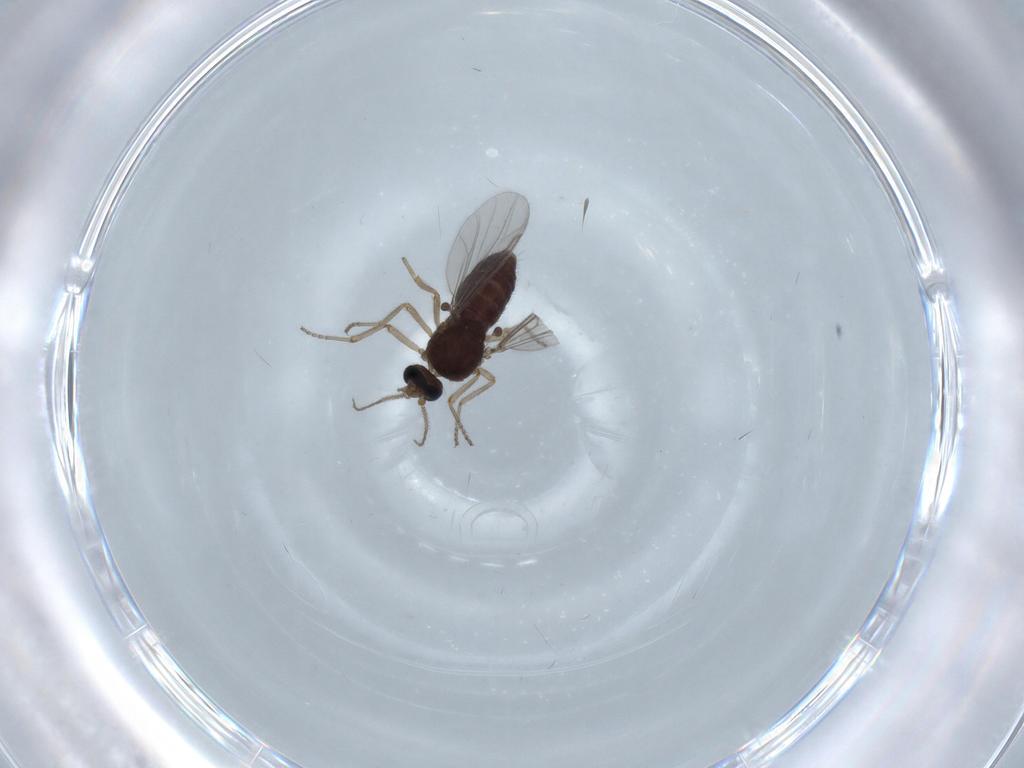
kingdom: Animalia
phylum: Arthropoda
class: Insecta
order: Diptera
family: Ceratopogonidae
